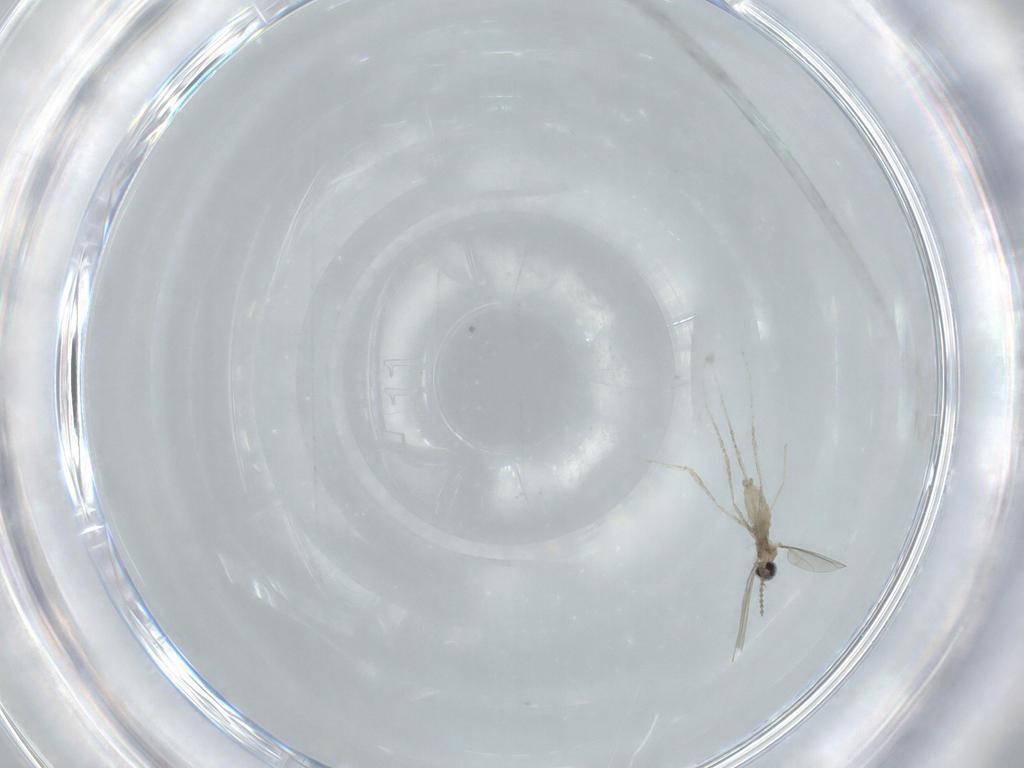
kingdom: Animalia
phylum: Arthropoda
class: Insecta
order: Diptera
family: Cecidomyiidae
